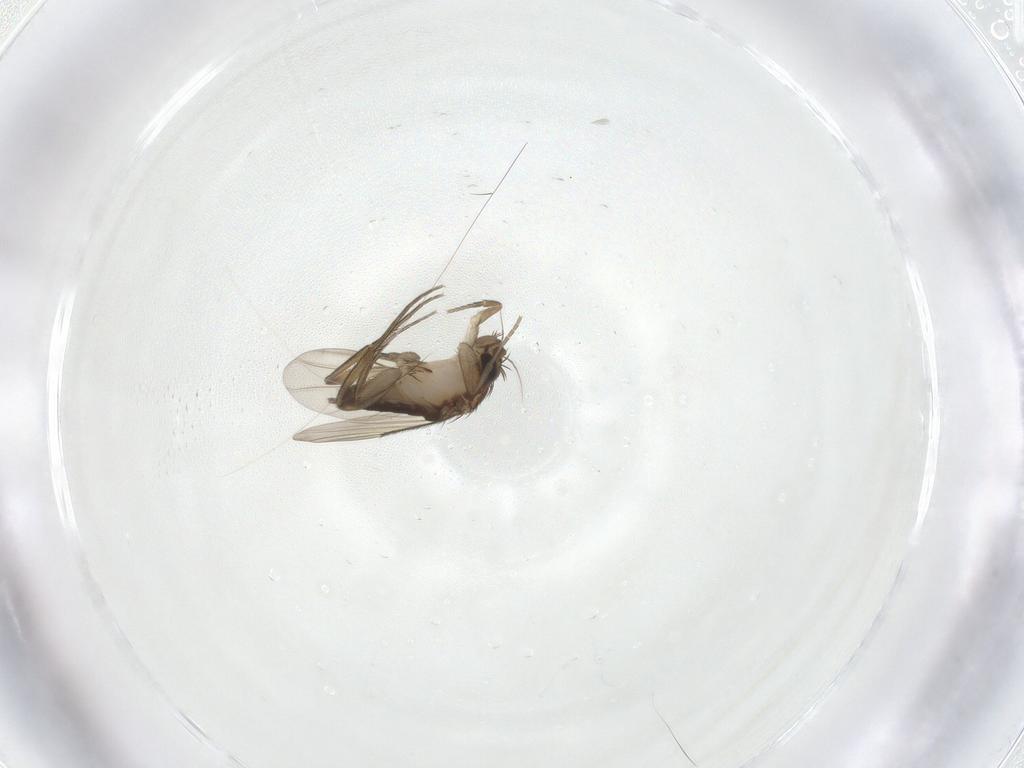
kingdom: Animalia
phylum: Arthropoda
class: Insecta
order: Diptera
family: Phoridae
